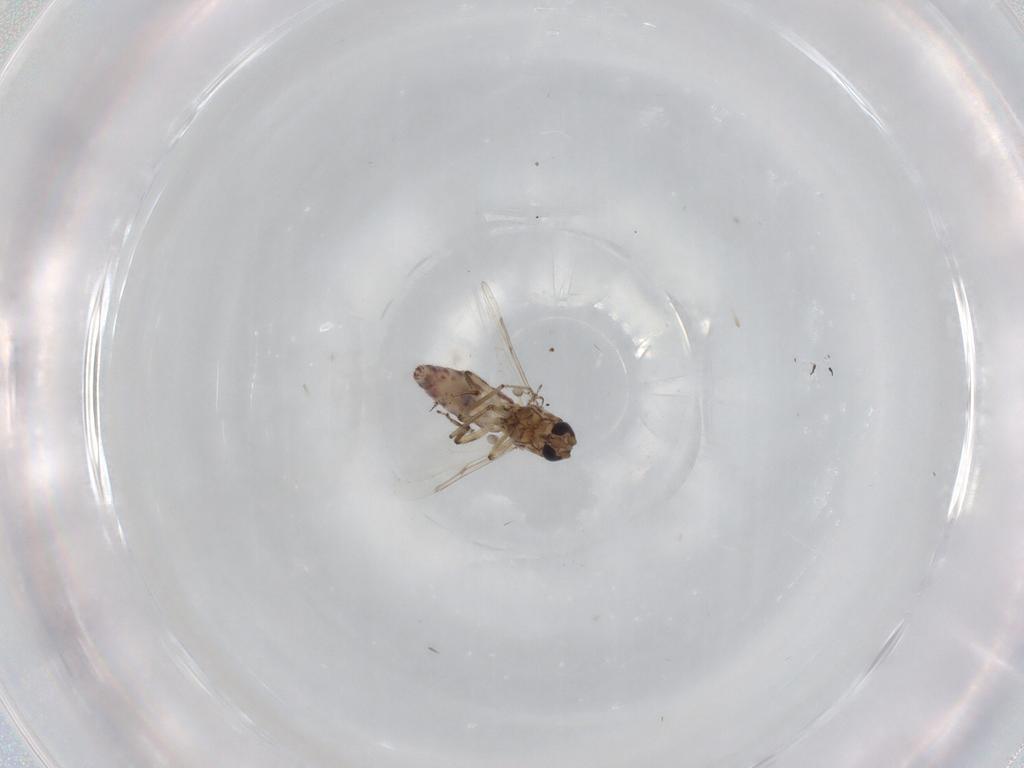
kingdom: Animalia
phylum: Arthropoda
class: Insecta
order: Diptera
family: Ceratopogonidae
